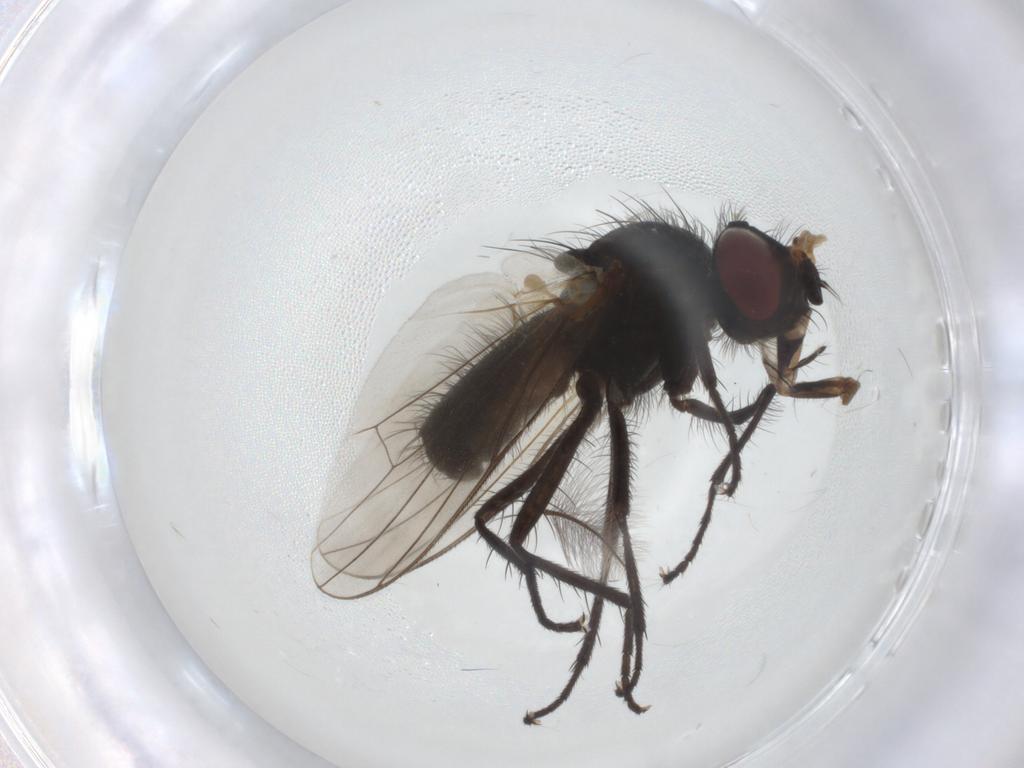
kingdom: Animalia
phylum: Arthropoda
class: Insecta
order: Diptera
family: Anthomyiidae
